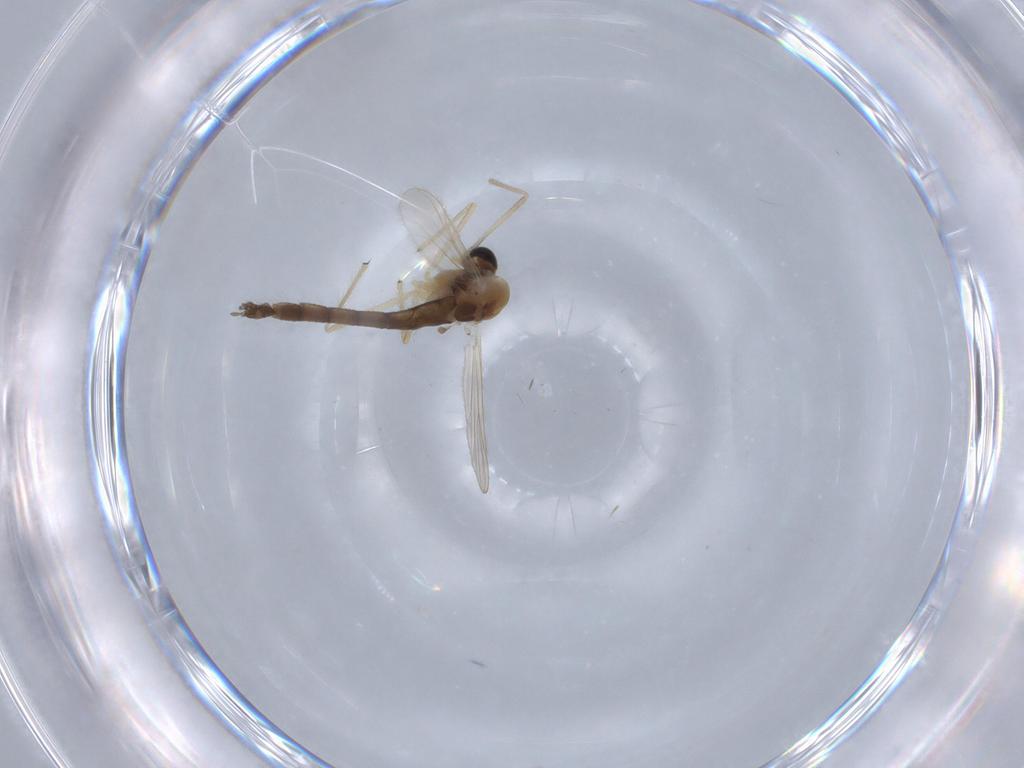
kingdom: Animalia
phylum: Arthropoda
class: Insecta
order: Diptera
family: Chironomidae
